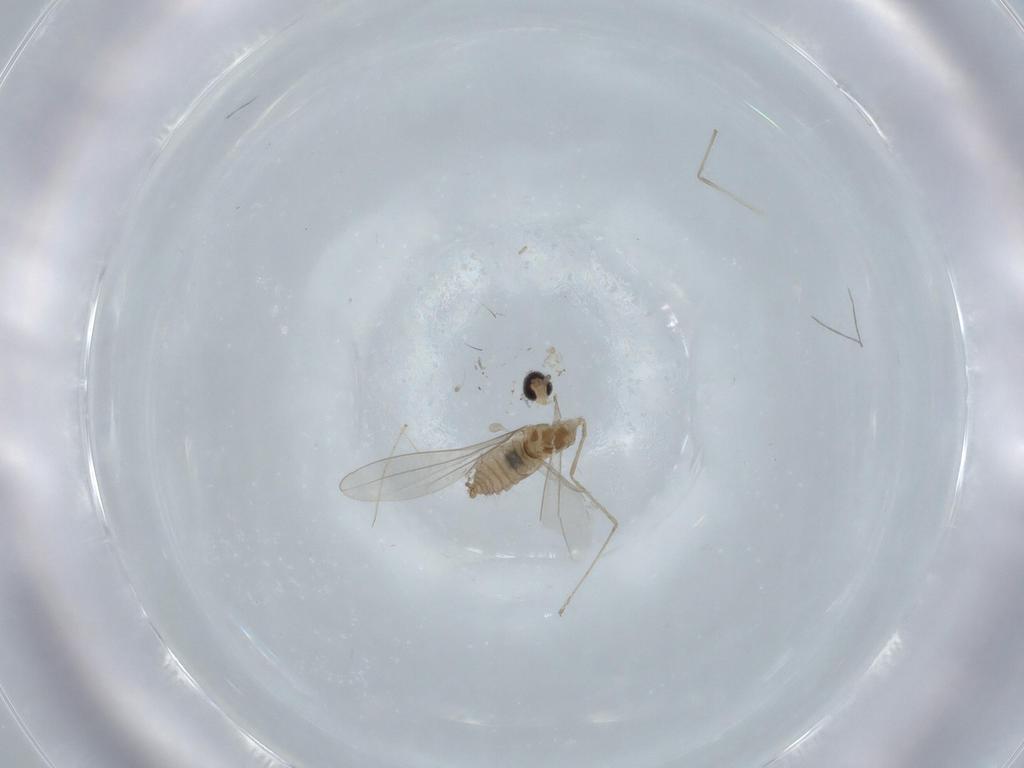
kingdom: Animalia
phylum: Arthropoda
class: Insecta
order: Diptera
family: Cecidomyiidae
